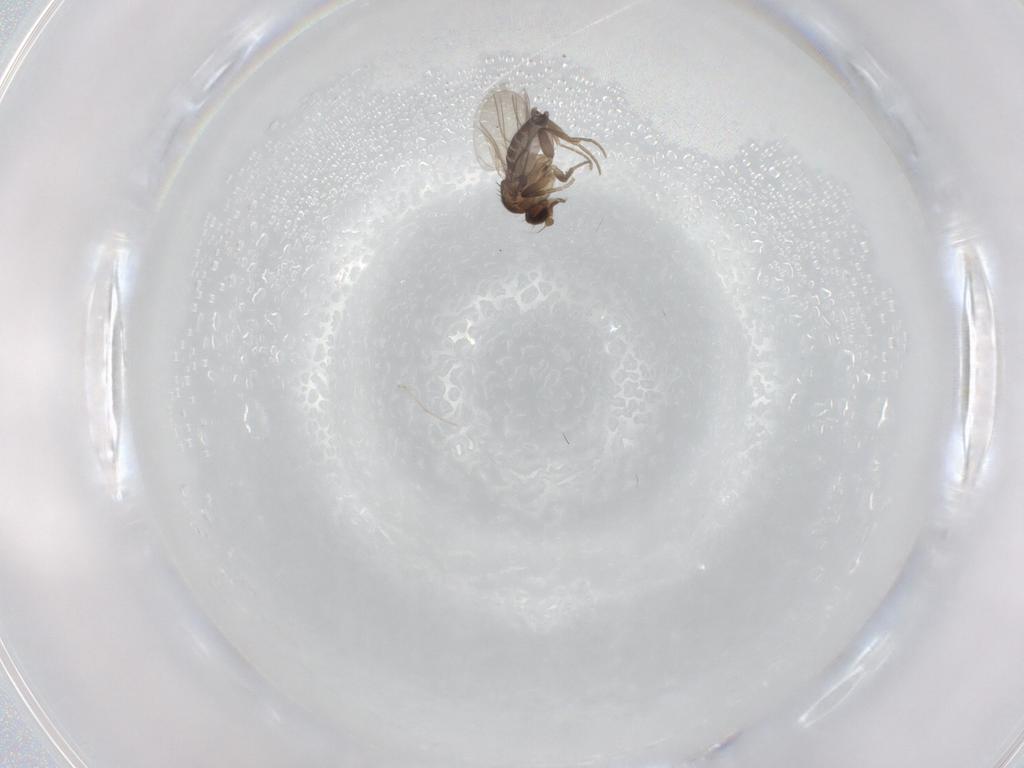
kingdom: Animalia
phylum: Arthropoda
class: Insecta
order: Diptera
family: Phoridae
